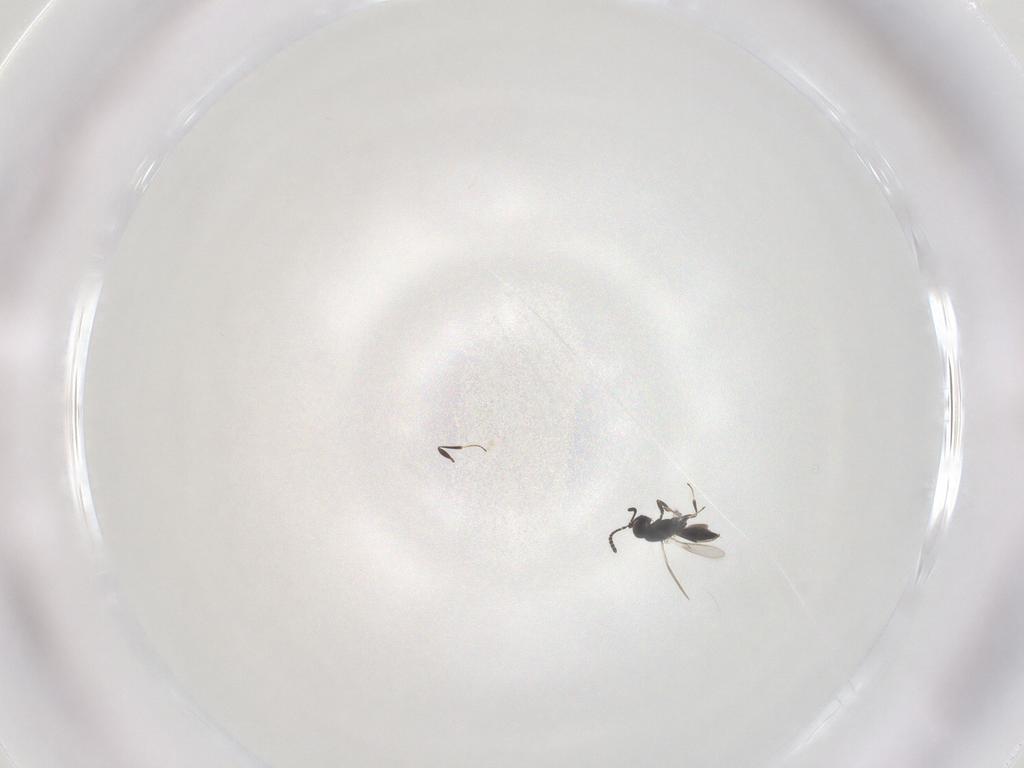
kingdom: Animalia
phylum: Arthropoda
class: Insecta
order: Hymenoptera
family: Scelionidae
